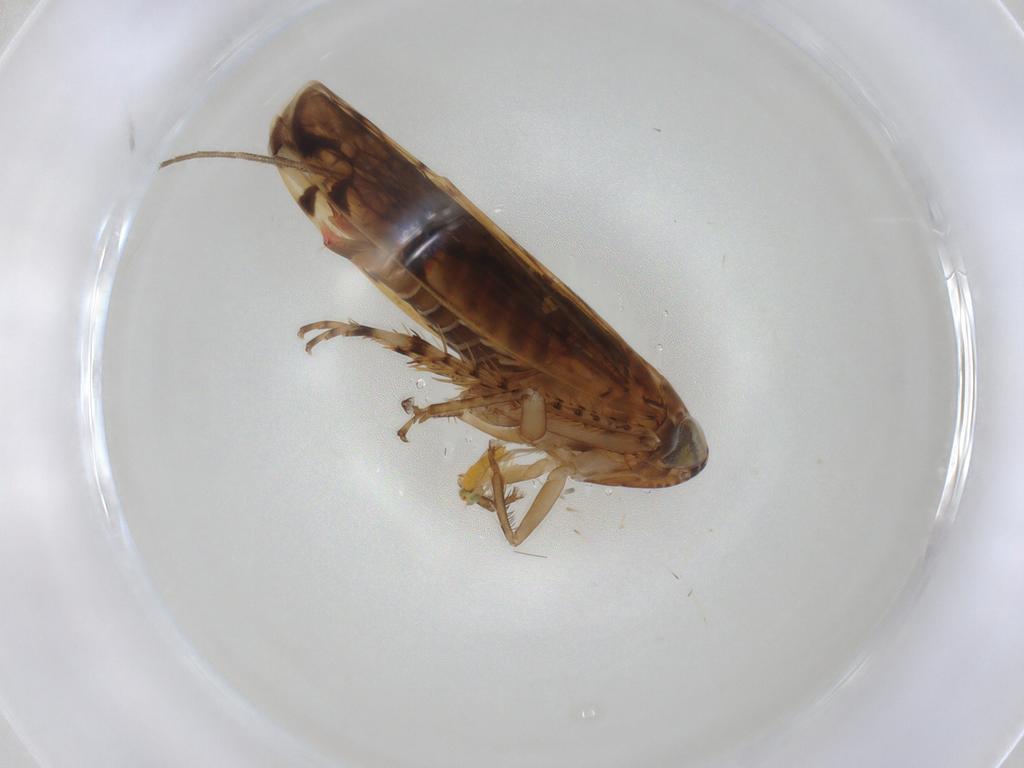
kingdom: Animalia
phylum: Arthropoda
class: Insecta
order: Hemiptera
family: Cicadellidae
